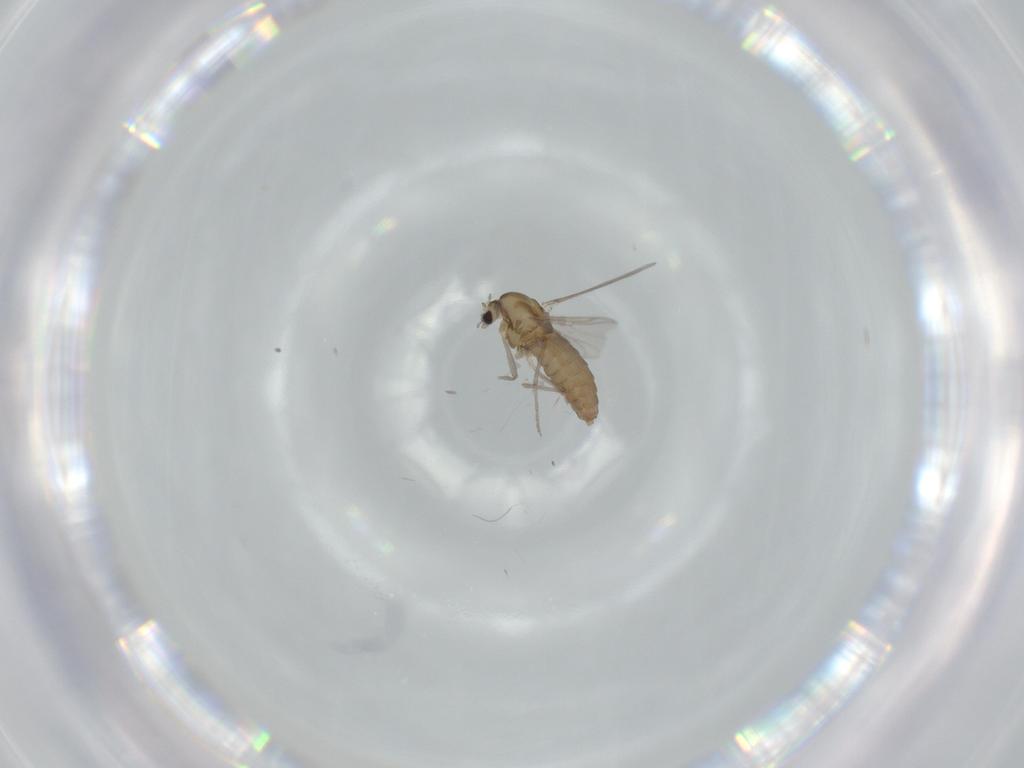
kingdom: Animalia
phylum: Arthropoda
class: Insecta
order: Diptera
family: Chironomidae
